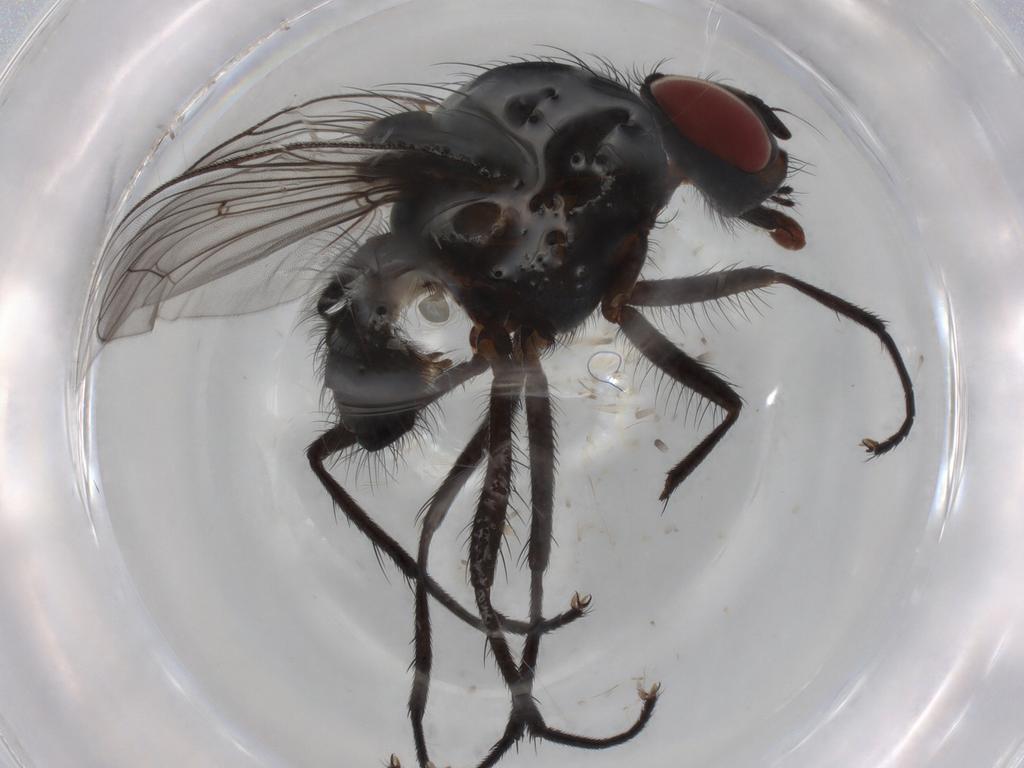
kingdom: Animalia
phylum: Arthropoda
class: Insecta
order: Diptera
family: Anthomyiidae
